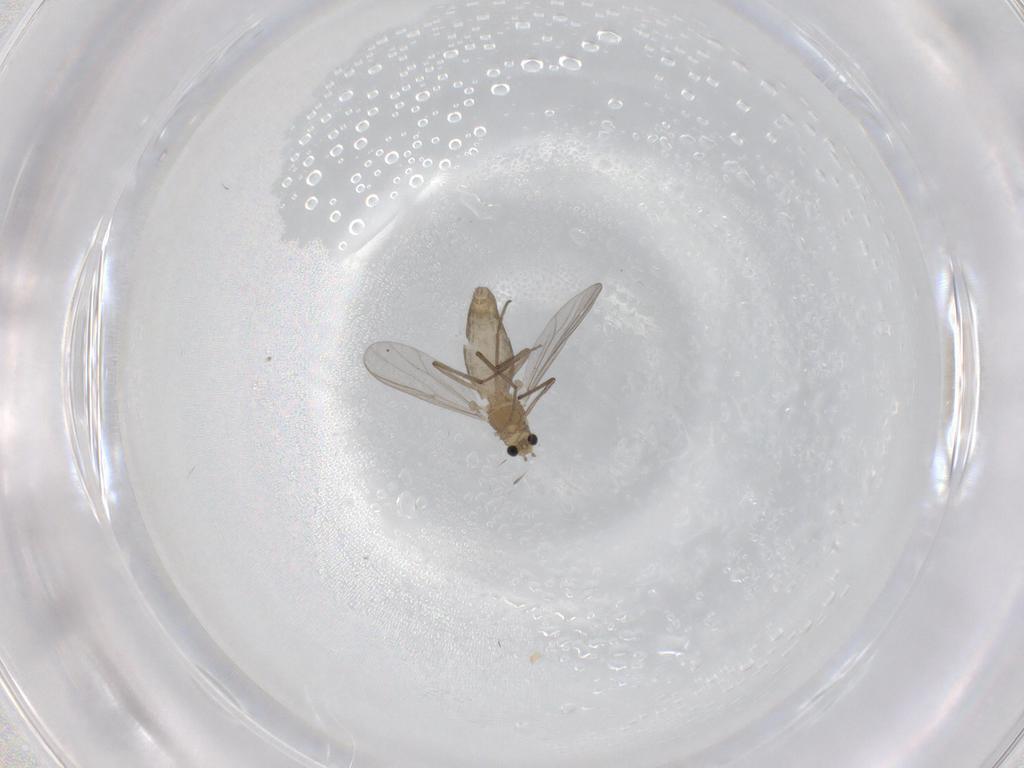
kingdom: Animalia
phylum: Arthropoda
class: Insecta
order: Diptera
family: Chironomidae
